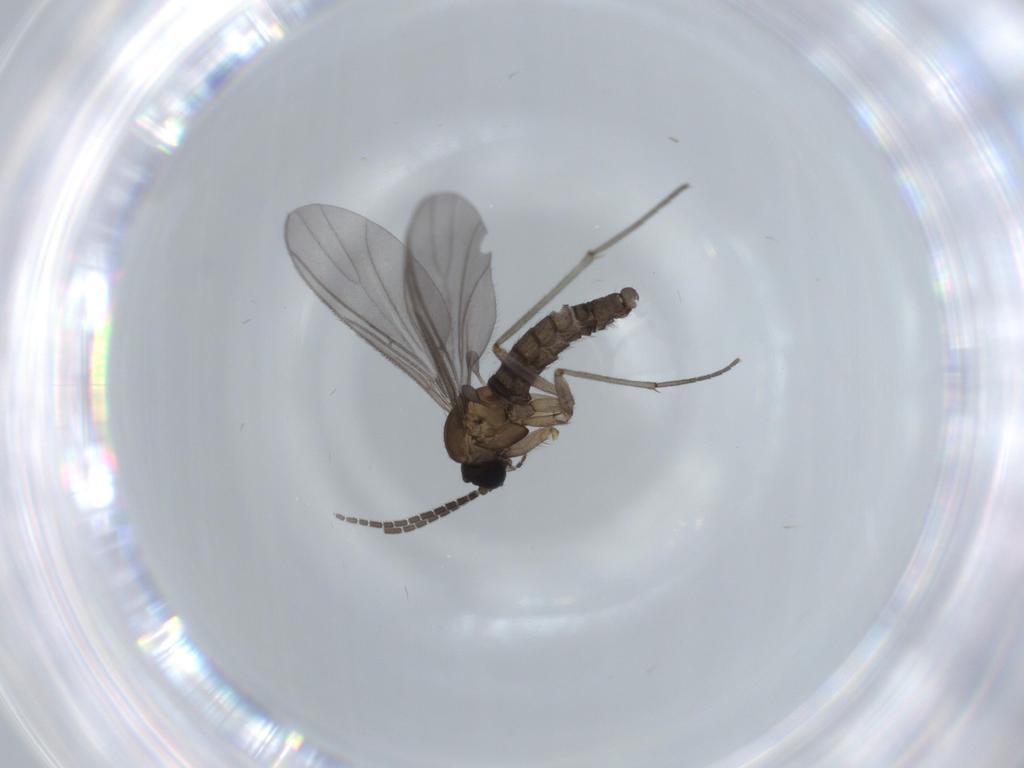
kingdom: Animalia
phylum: Arthropoda
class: Insecta
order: Diptera
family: Sciaridae
